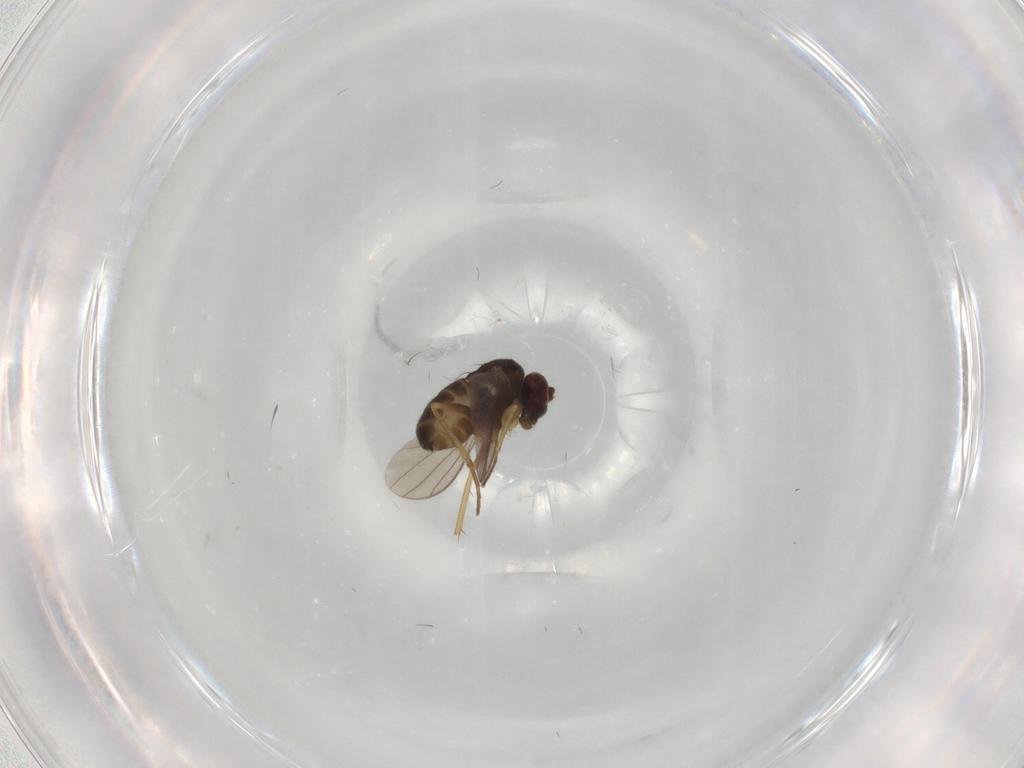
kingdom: Animalia
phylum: Arthropoda
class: Insecta
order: Diptera
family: Dolichopodidae
